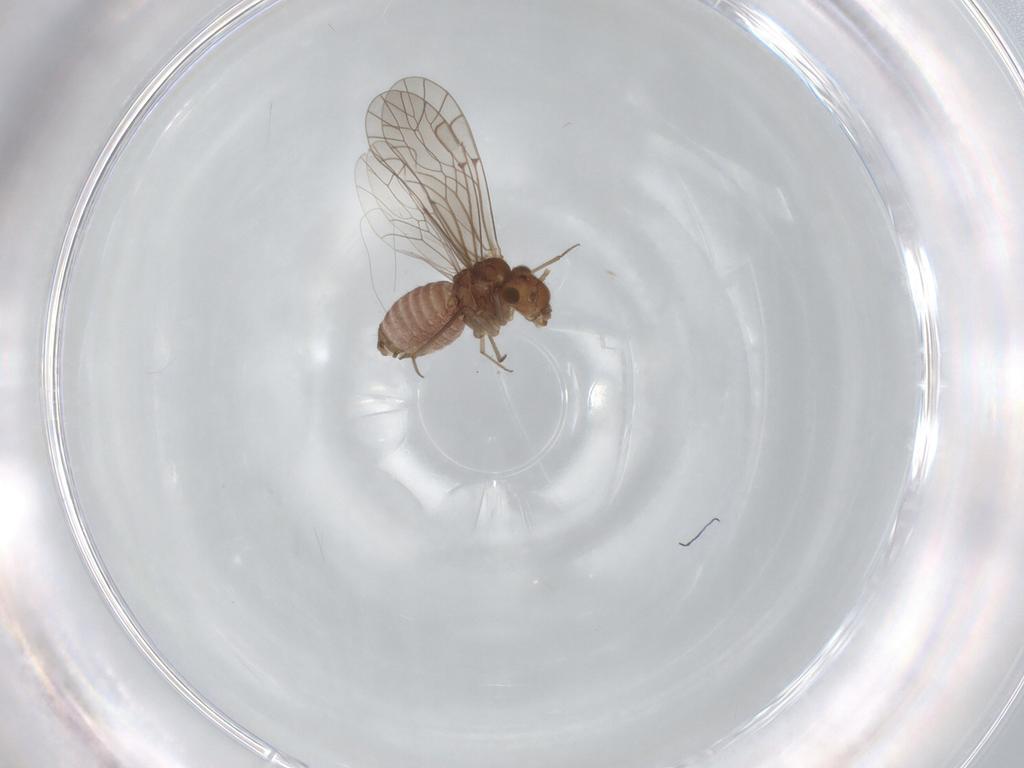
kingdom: Animalia
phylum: Arthropoda
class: Insecta
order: Psocodea
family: Lachesillidae
